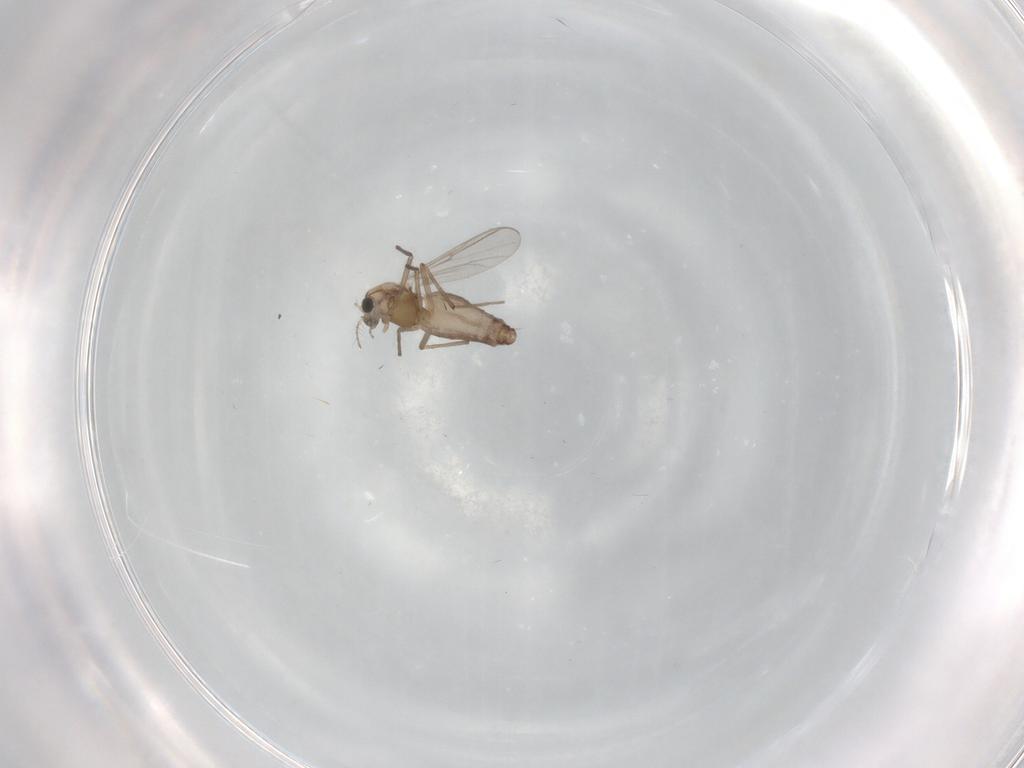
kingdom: Animalia
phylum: Arthropoda
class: Insecta
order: Diptera
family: Chironomidae
